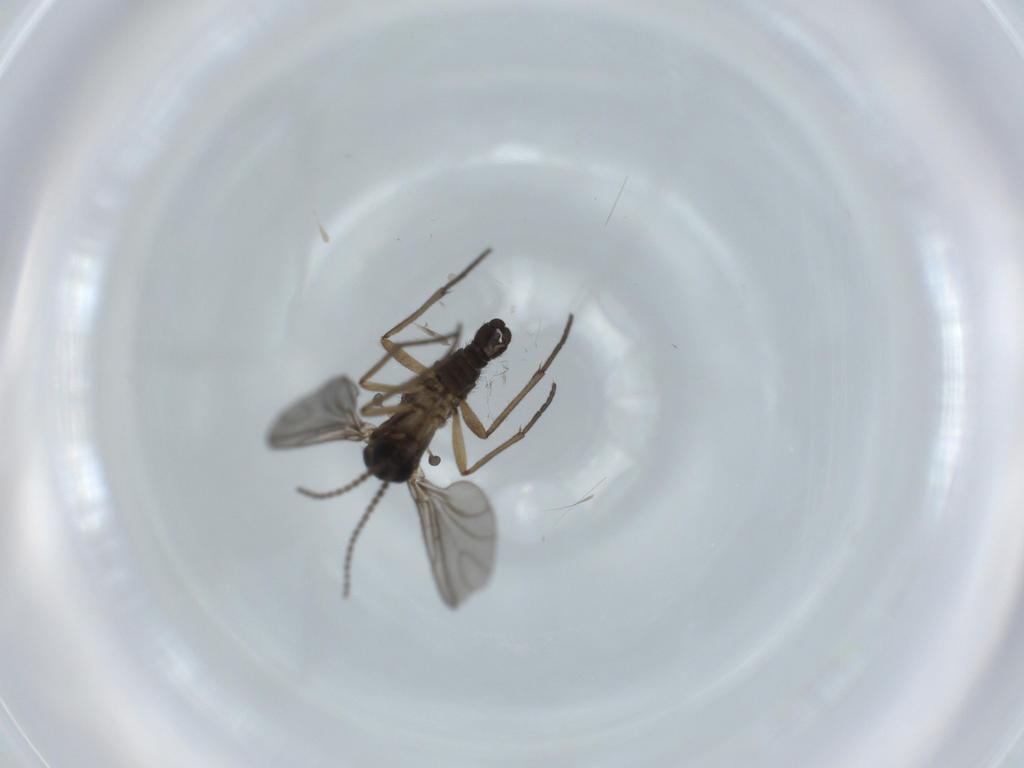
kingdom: Animalia
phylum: Arthropoda
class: Insecta
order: Diptera
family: Sciaridae
